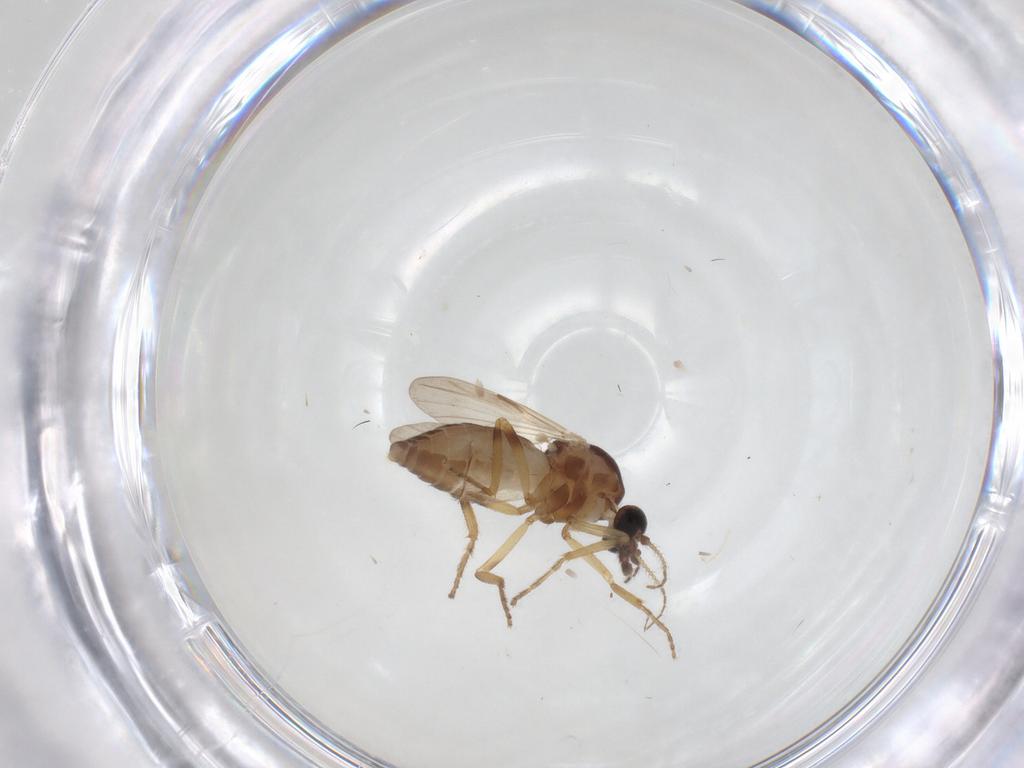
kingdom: Animalia
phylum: Arthropoda
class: Insecta
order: Diptera
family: Ceratopogonidae
